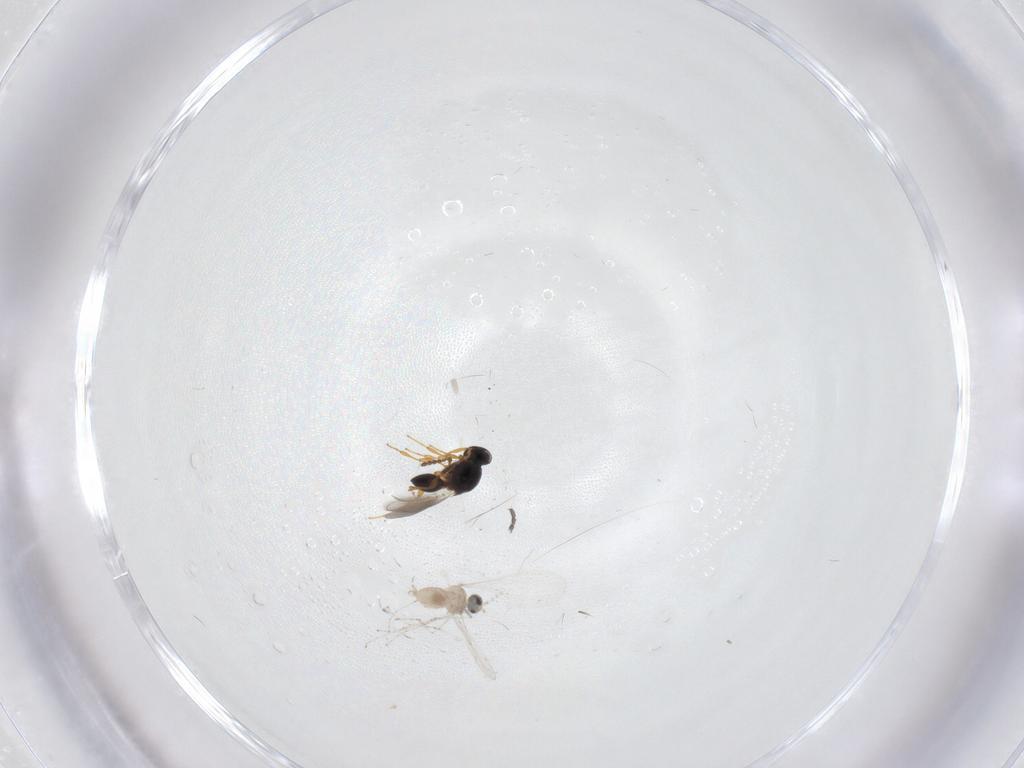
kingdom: Animalia
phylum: Arthropoda
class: Insecta
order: Diptera
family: Cecidomyiidae
